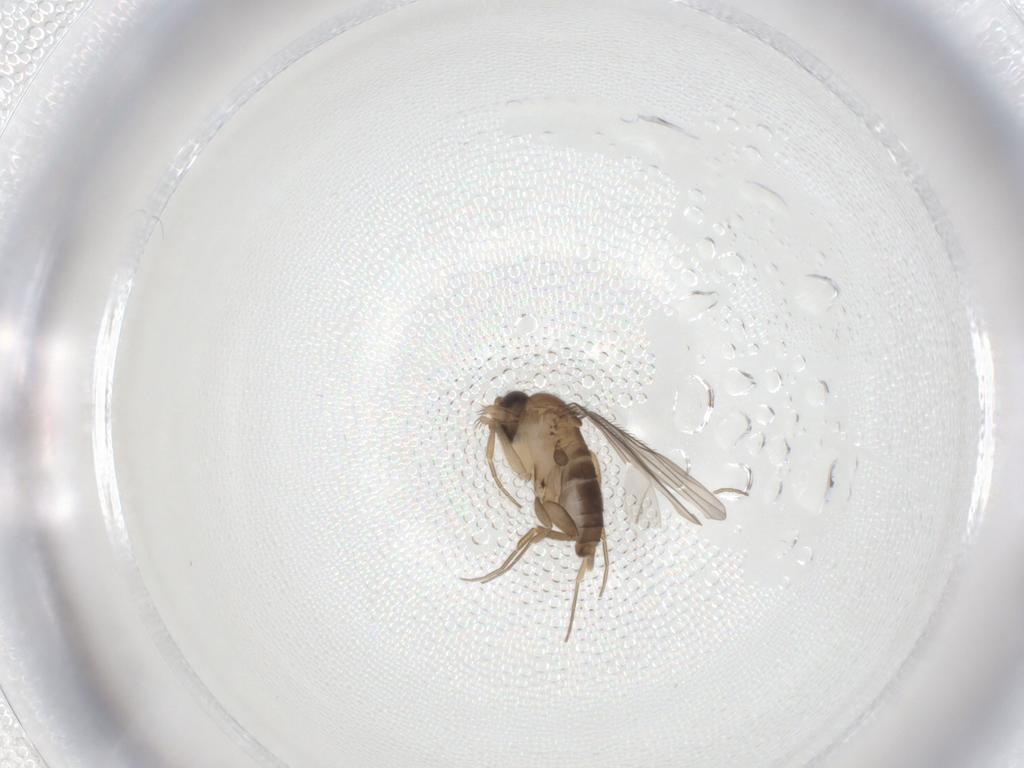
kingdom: Animalia
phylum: Arthropoda
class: Insecta
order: Diptera
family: Phoridae
